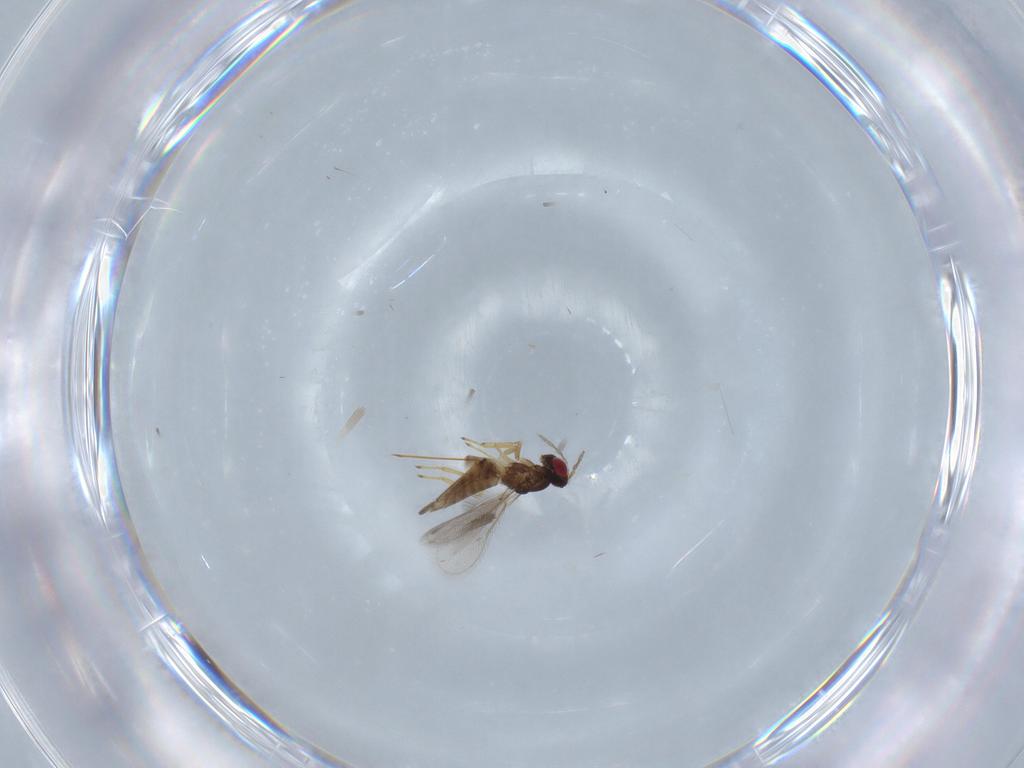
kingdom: Animalia
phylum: Arthropoda
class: Insecta
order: Hymenoptera
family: Eulophidae
